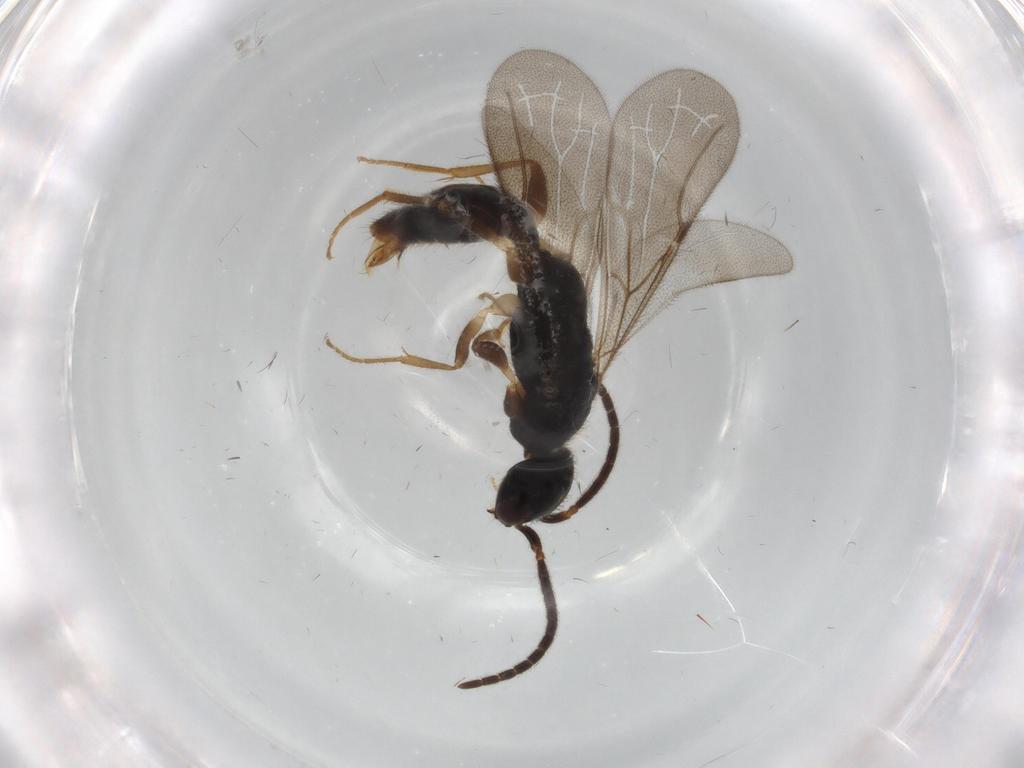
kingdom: Animalia
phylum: Arthropoda
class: Insecta
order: Hymenoptera
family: Bethylidae
